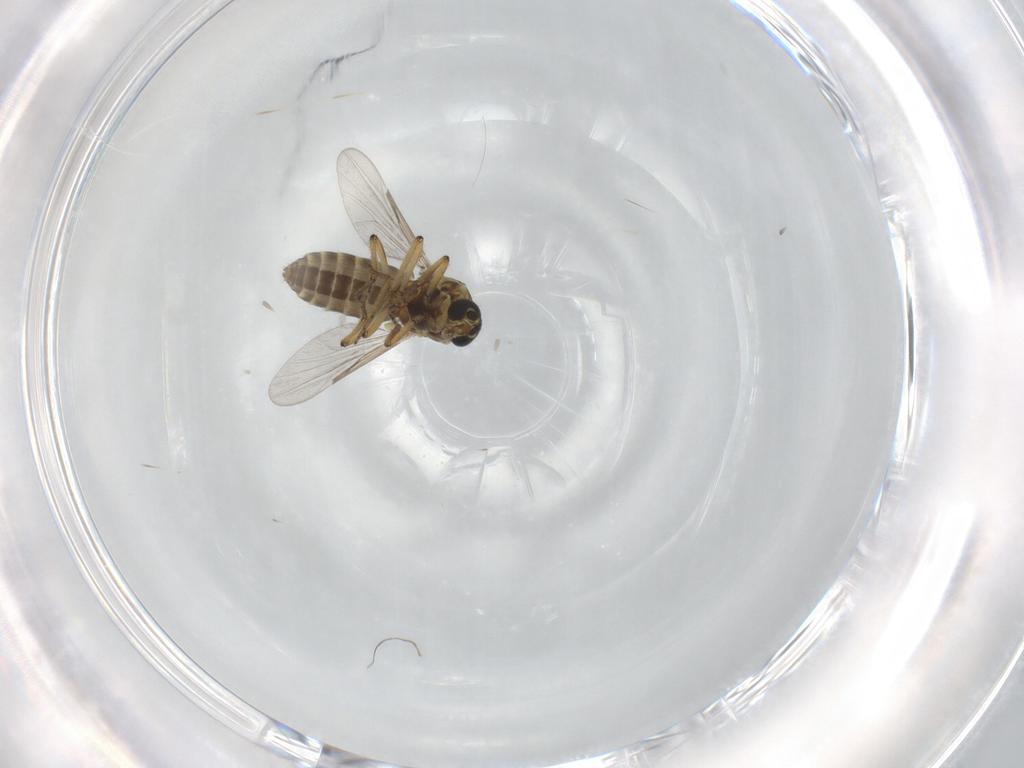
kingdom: Animalia
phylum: Arthropoda
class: Insecta
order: Diptera
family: Ceratopogonidae
